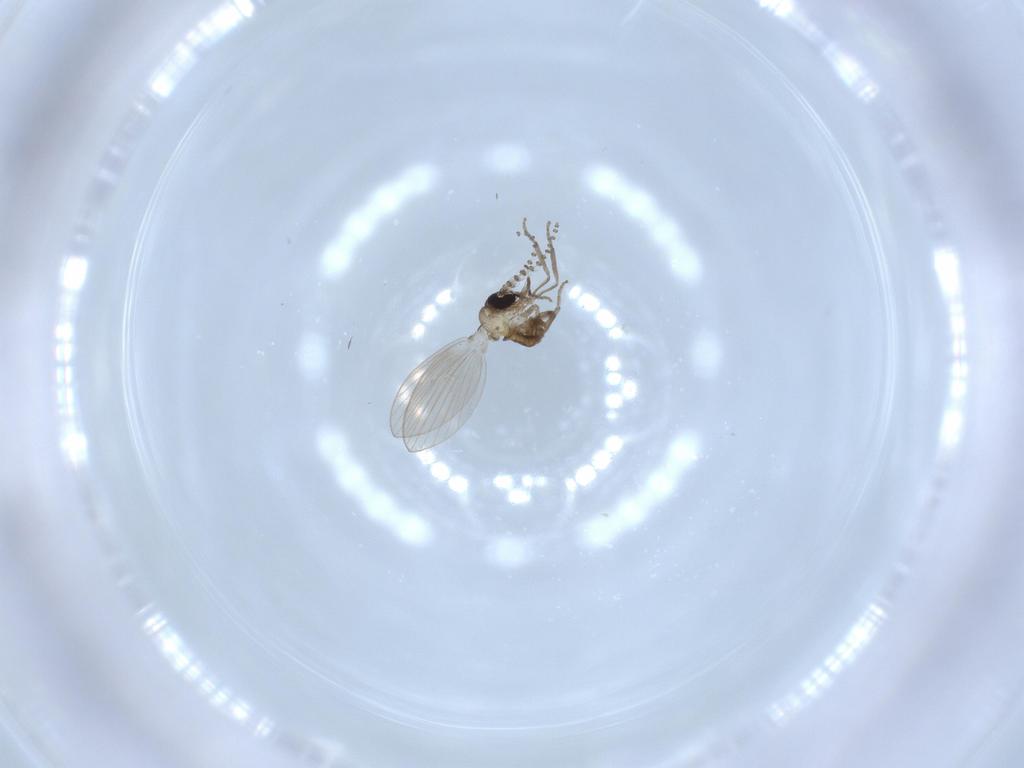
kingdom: Animalia
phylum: Arthropoda
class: Insecta
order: Diptera
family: Psychodidae
